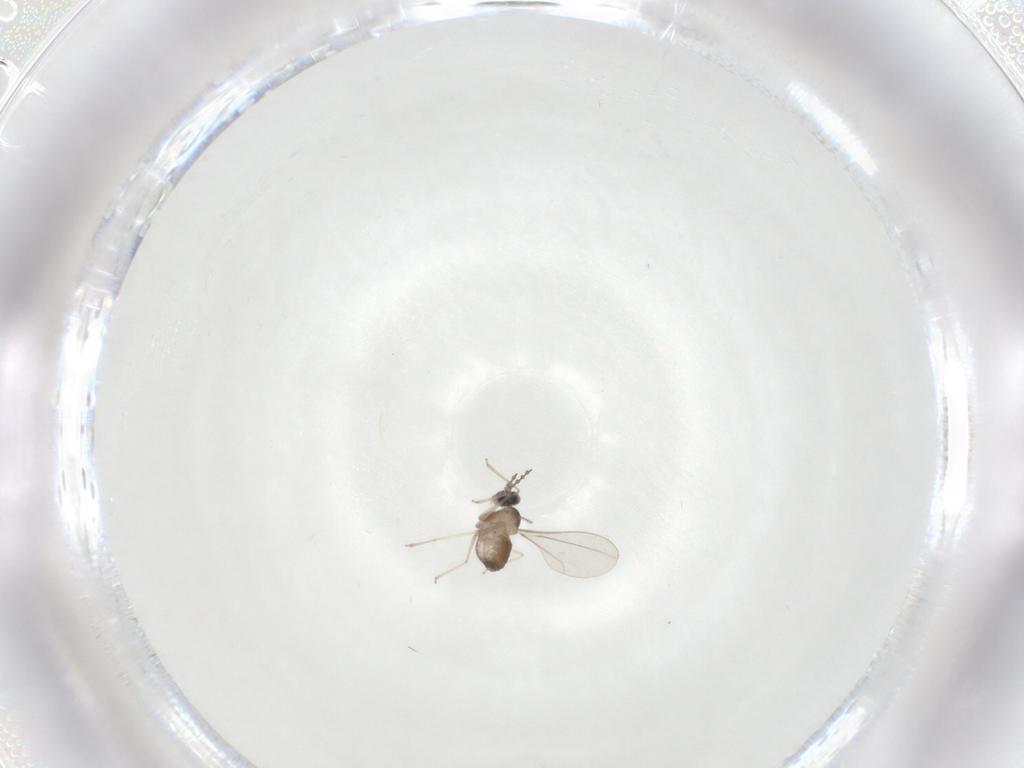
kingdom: Animalia
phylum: Arthropoda
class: Insecta
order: Diptera
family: Cecidomyiidae
